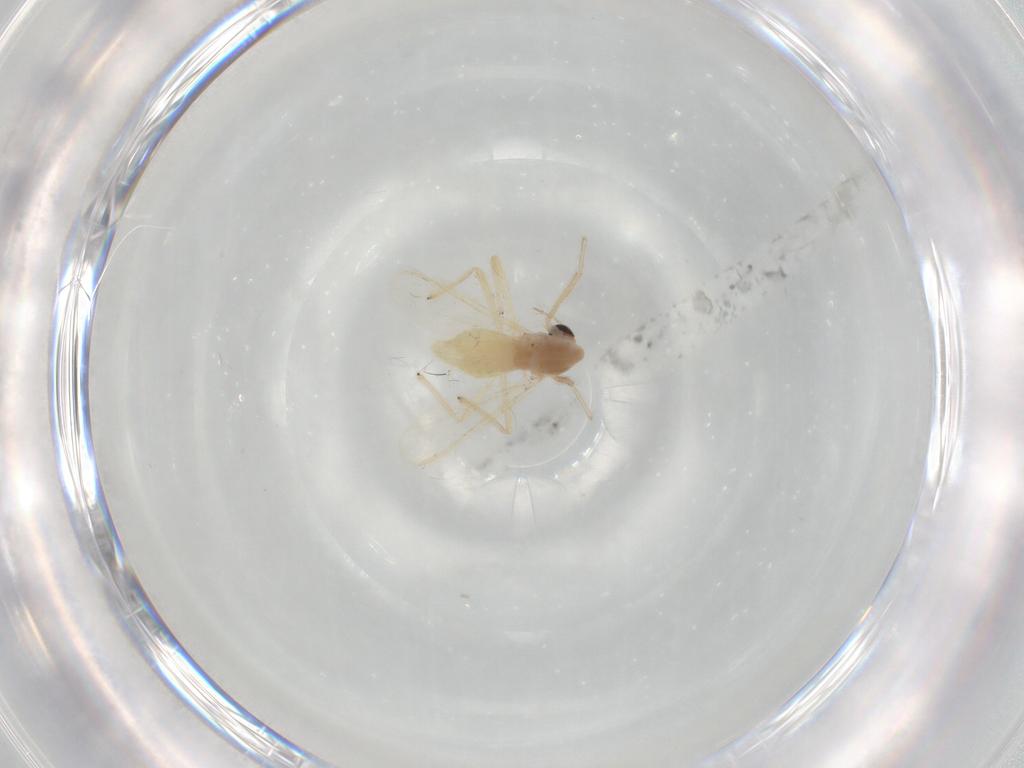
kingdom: Animalia
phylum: Arthropoda
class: Insecta
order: Diptera
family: Chironomidae
